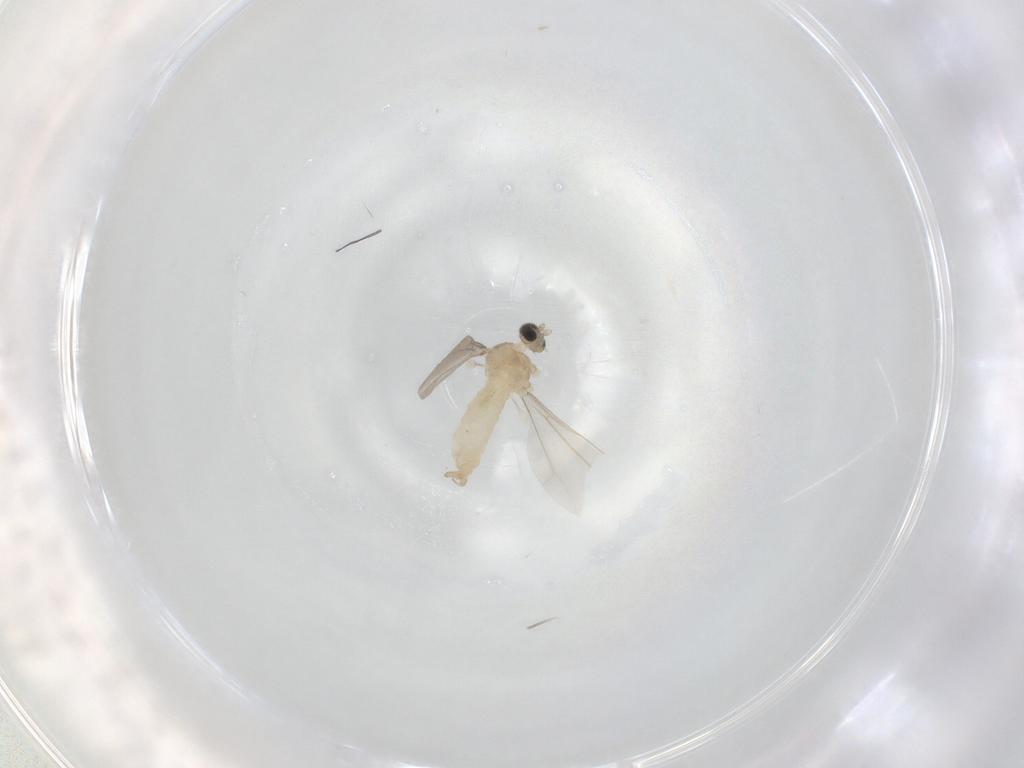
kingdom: Animalia
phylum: Arthropoda
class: Insecta
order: Diptera
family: Cecidomyiidae
